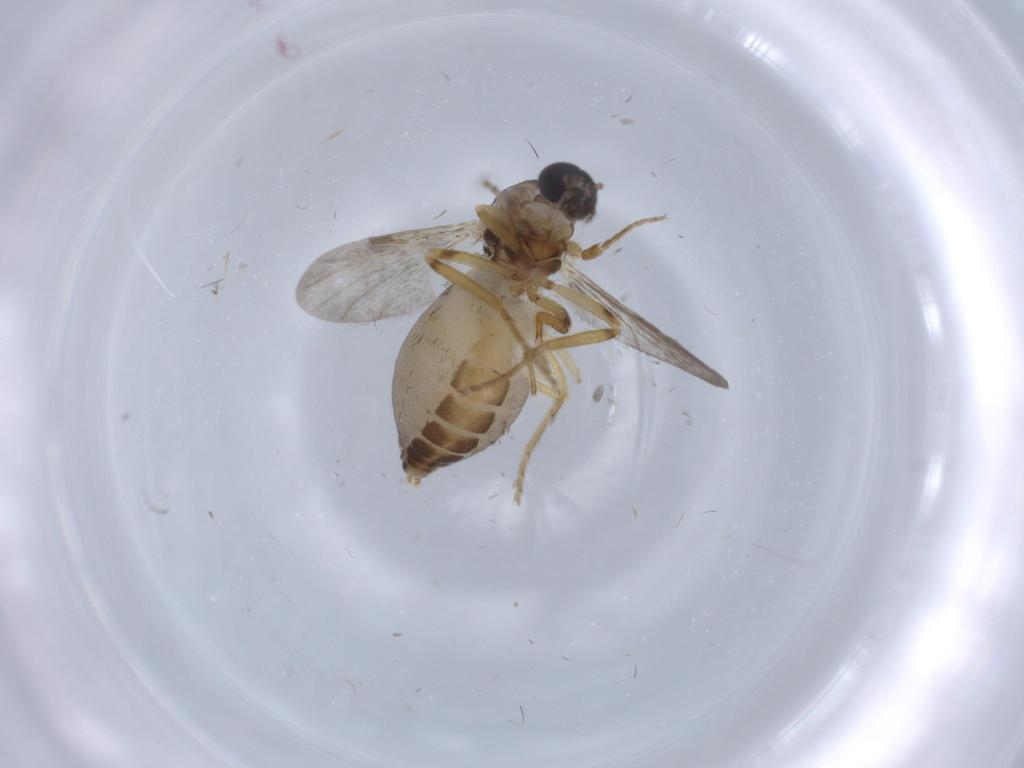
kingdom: Animalia
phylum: Arthropoda
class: Insecta
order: Diptera
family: Ceratopogonidae
